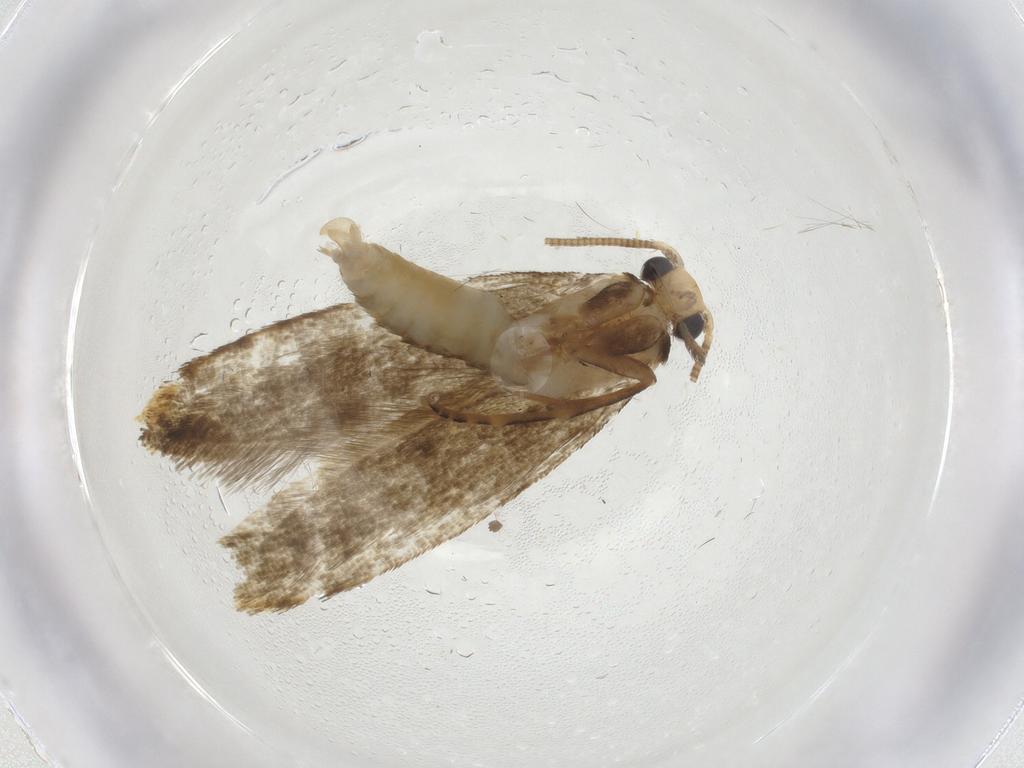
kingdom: Animalia
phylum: Arthropoda
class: Insecta
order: Lepidoptera
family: Tineidae
